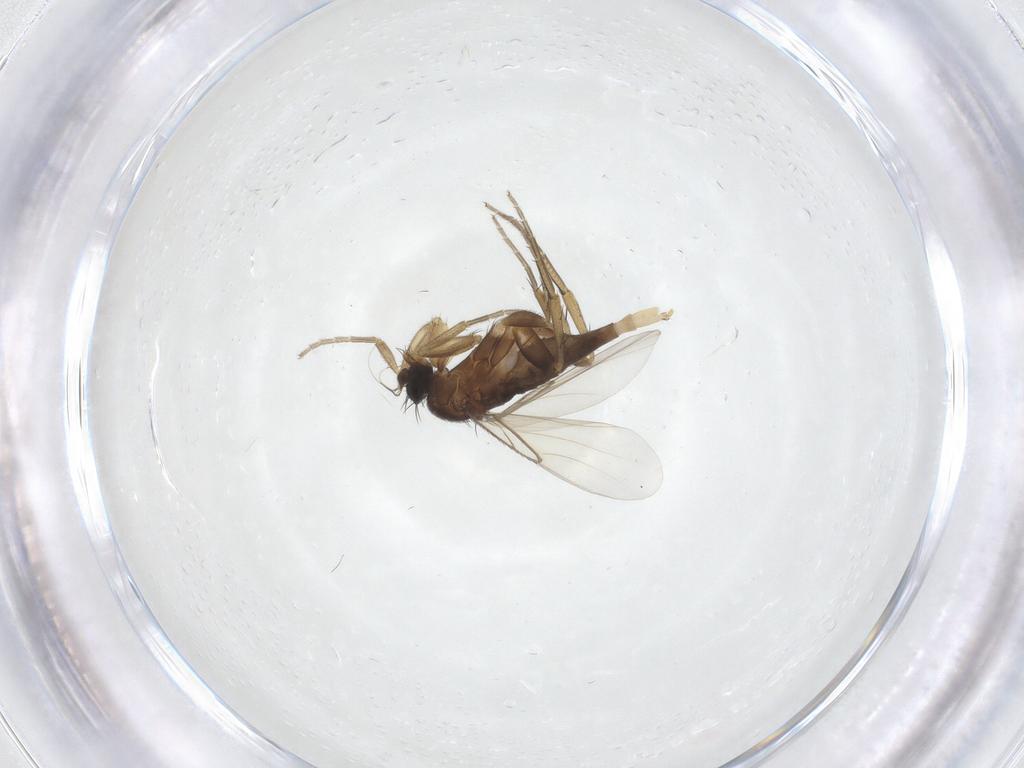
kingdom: Animalia
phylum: Arthropoda
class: Insecta
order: Diptera
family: Phoridae
